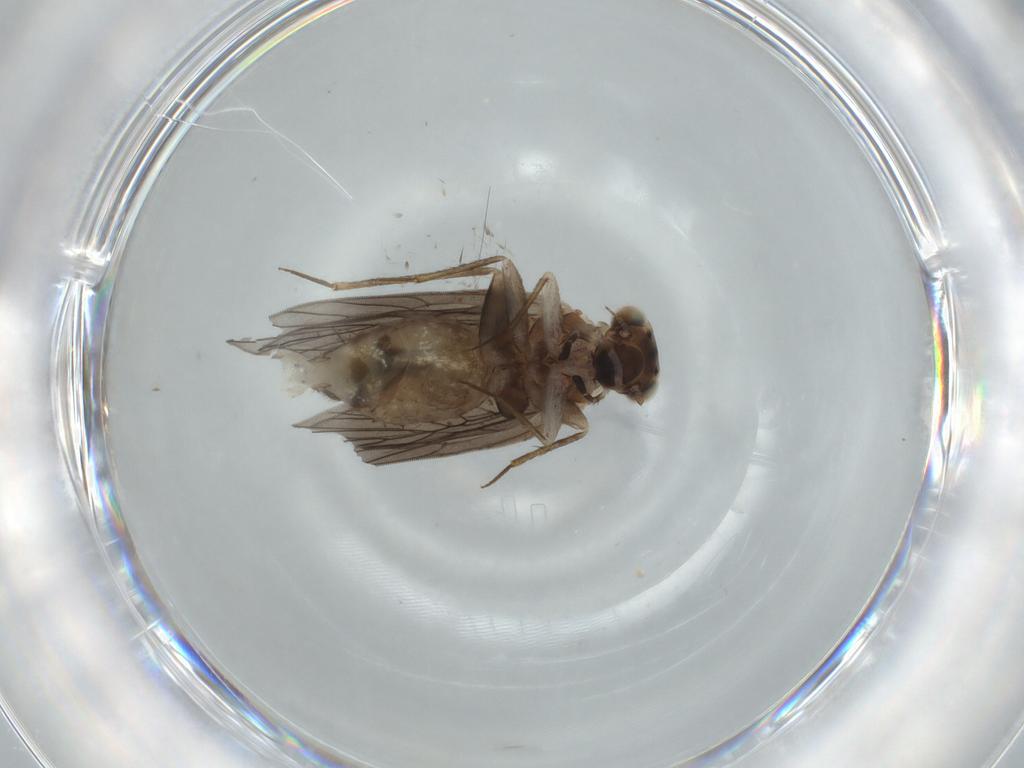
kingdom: Animalia
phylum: Arthropoda
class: Insecta
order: Psocodea
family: Lepidopsocidae
